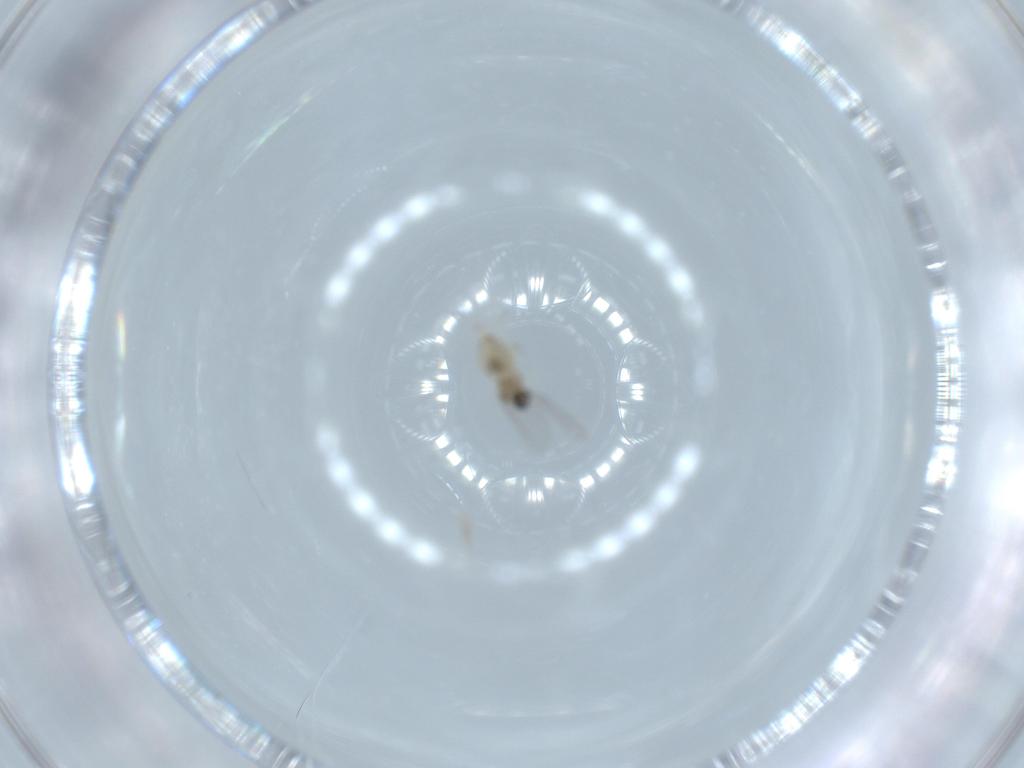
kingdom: Animalia
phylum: Arthropoda
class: Insecta
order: Diptera
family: Cecidomyiidae
